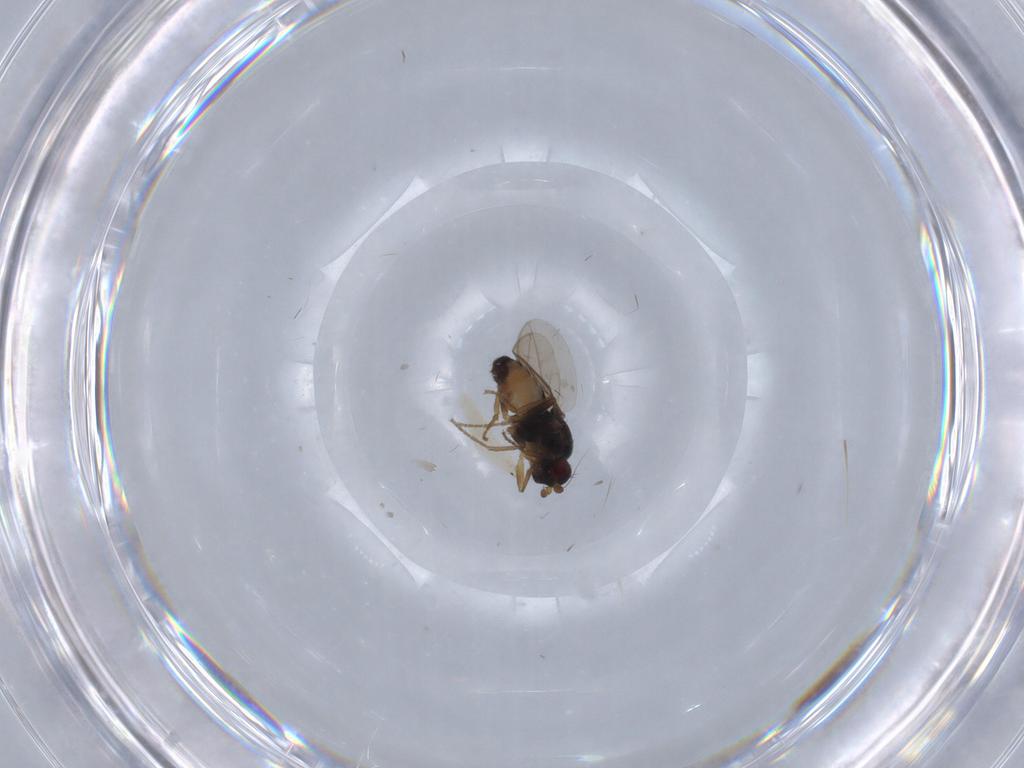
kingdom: Animalia
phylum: Arthropoda
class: Insecta
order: Diptera
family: Sphaeroceridae
